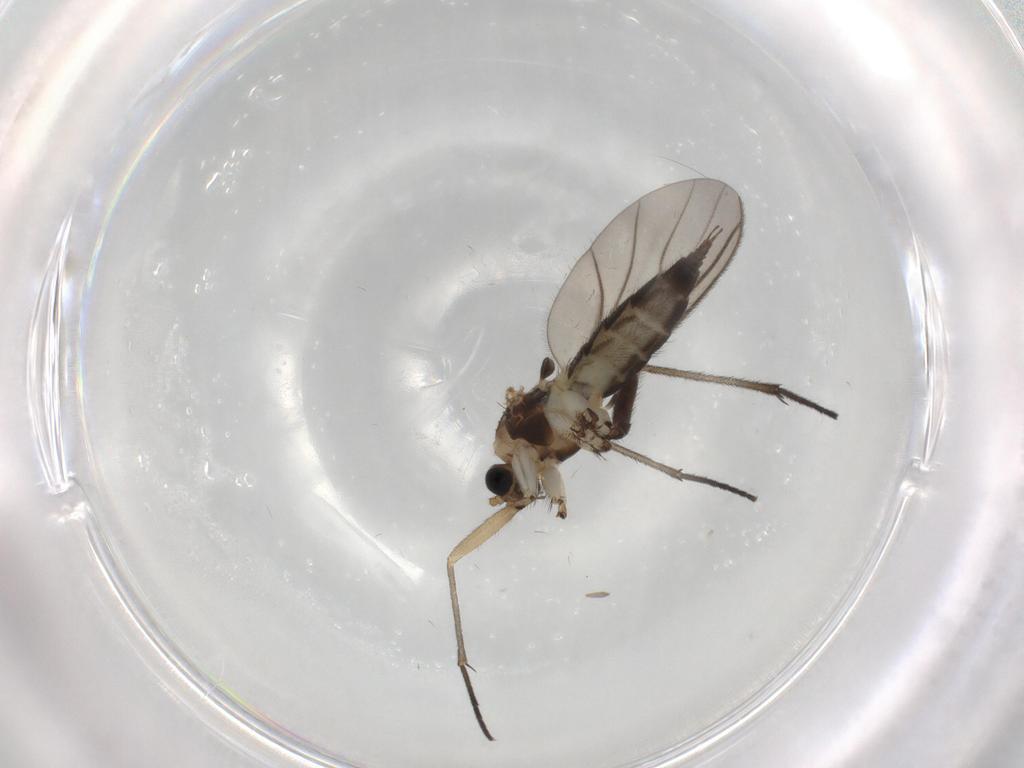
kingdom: Animalia
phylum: Arthropoda
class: Insecta
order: Diptera
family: Sciaridae
